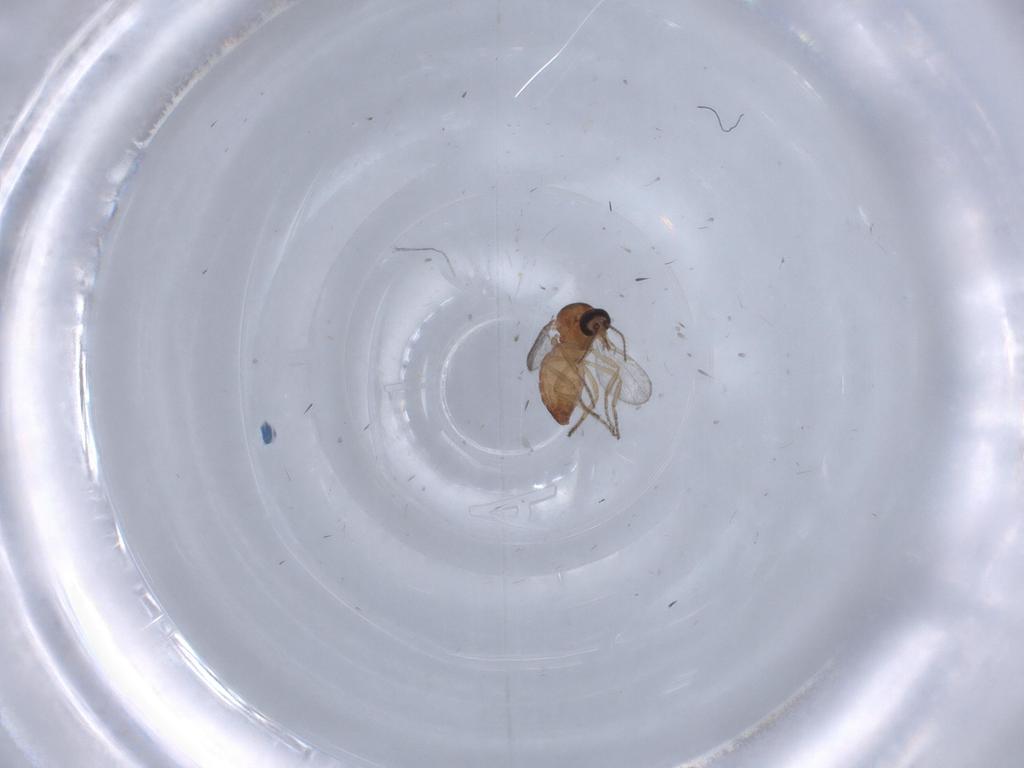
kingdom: Animalia
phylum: Arthropoda
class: Insecta
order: Diptera
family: Ceratopogonidae
